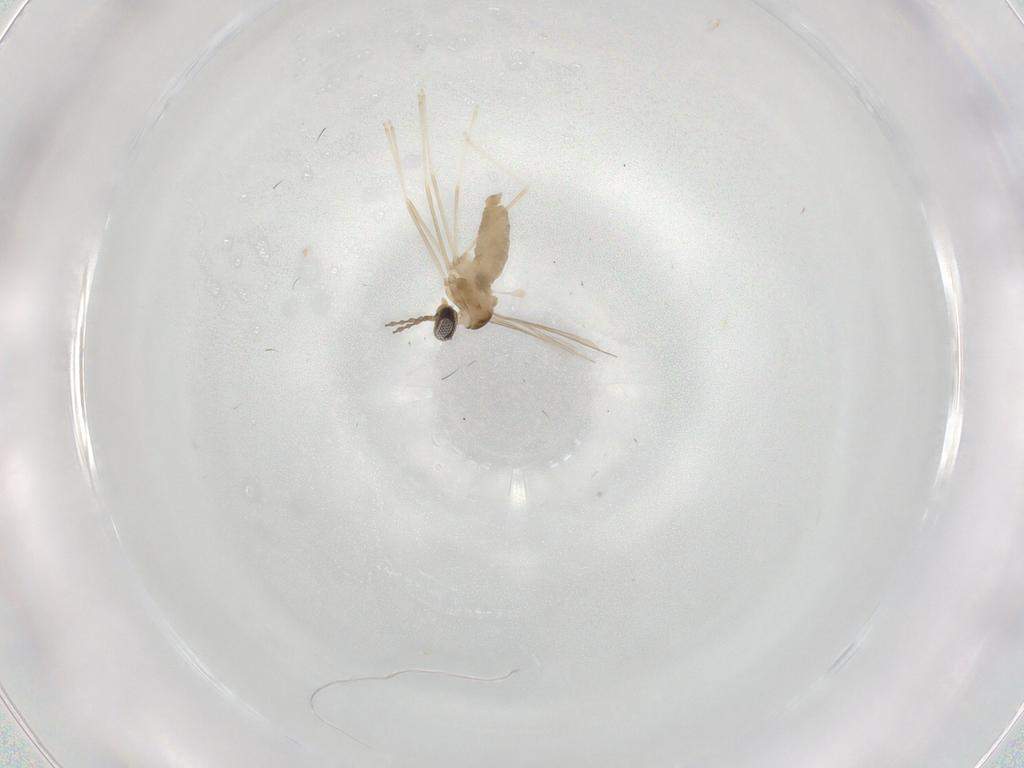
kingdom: Animalia
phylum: Arthropoda
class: Insecta
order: Diptera
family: Cecidomyiidae
